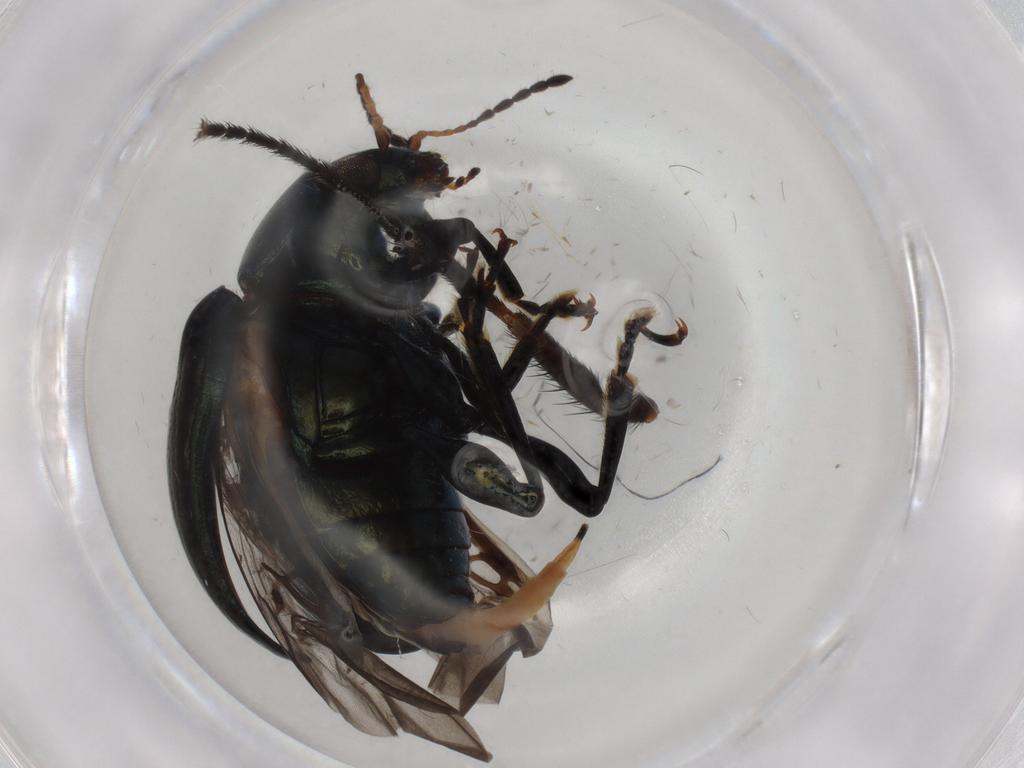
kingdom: Animalia
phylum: Arthropoda
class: Insecta
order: Coleoptera
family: Chrysomelidae
